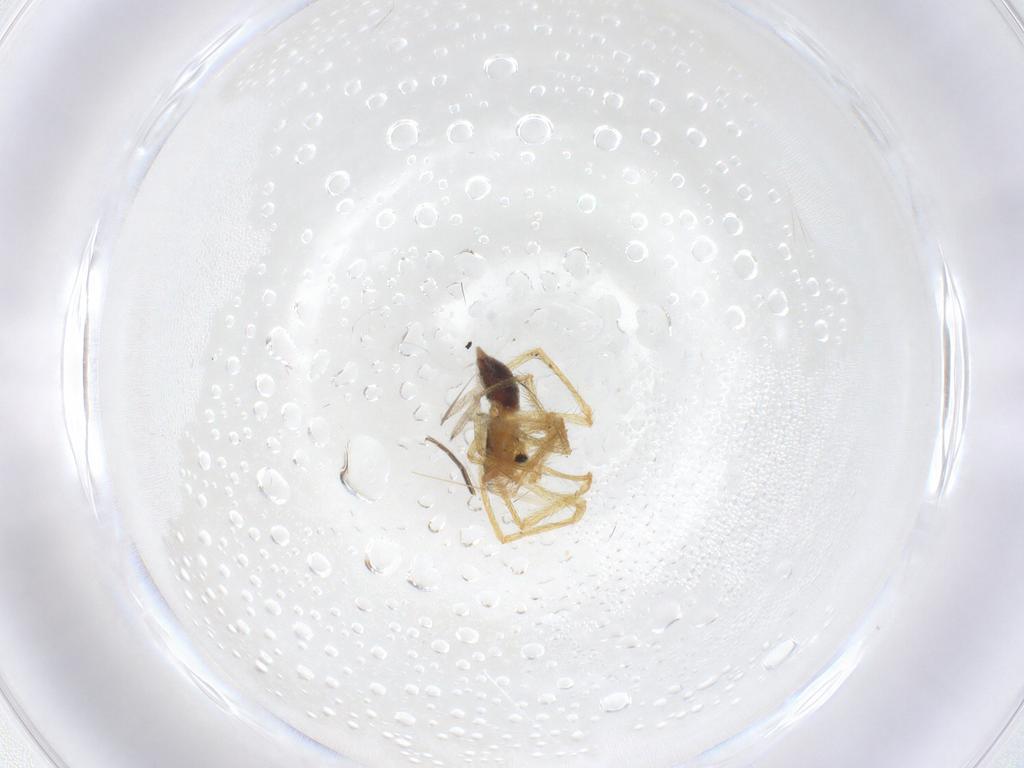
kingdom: Animalia
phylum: Arthropoda
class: Arachnida
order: Araneae
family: Linyphiidae
